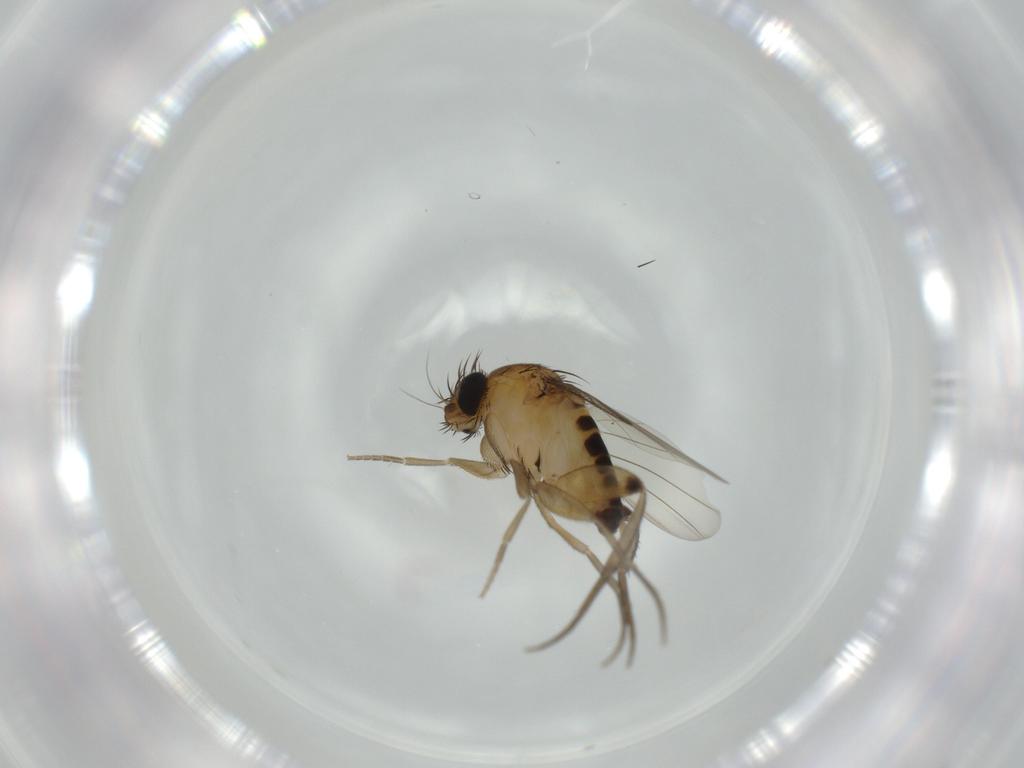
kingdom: Animalia
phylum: Arthropoda
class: Insecta
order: Diptera
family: Phoridae
